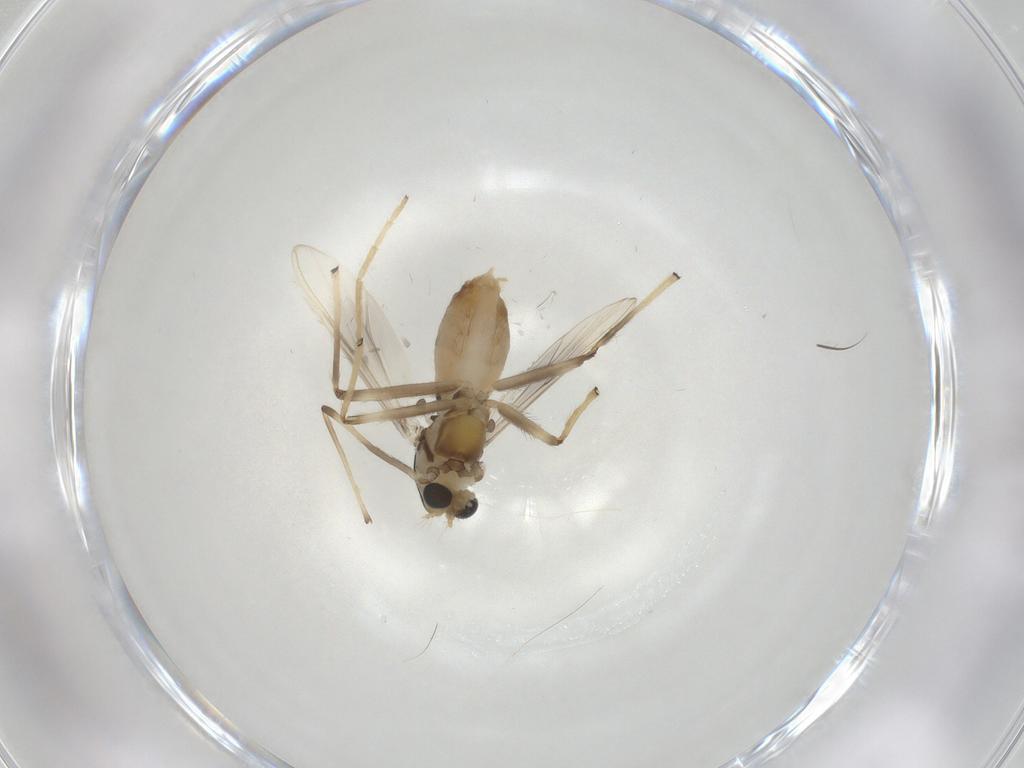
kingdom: Animalia
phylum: Arthropoda
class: Insecta
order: Diptera
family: Chironomidae
